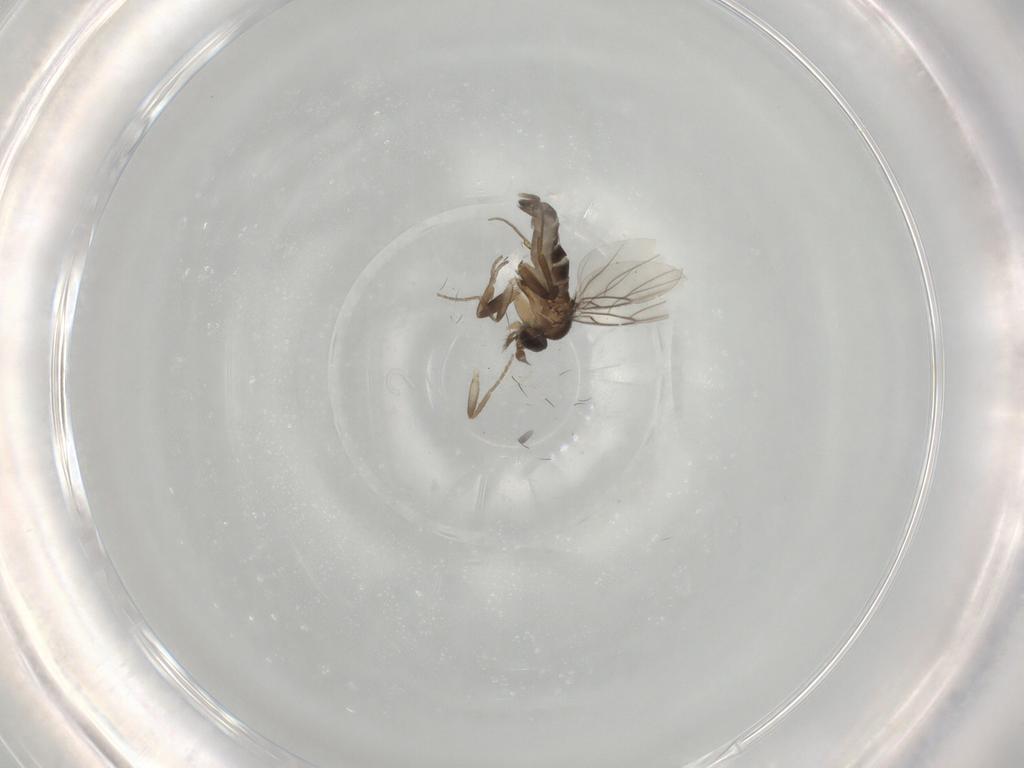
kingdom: Animalia
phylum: Arthropoda
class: Insecta
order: Diptera
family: Phoridae
